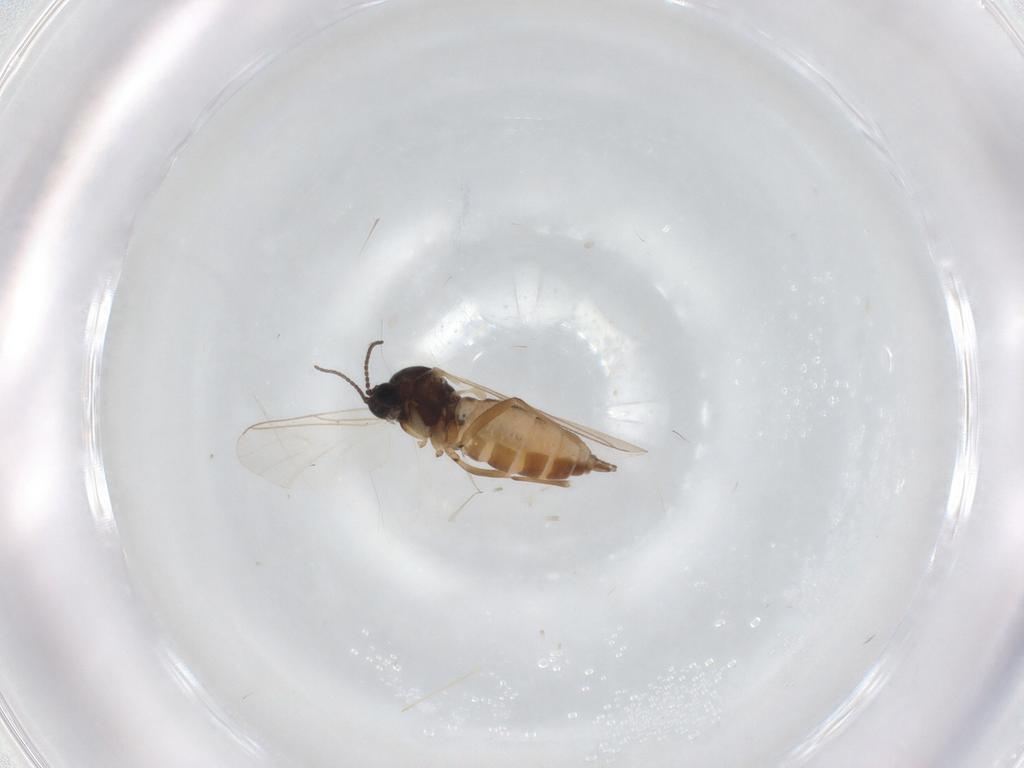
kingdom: Animalia
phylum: Arthropoda
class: Insecta
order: Diptera
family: Sciaridae
